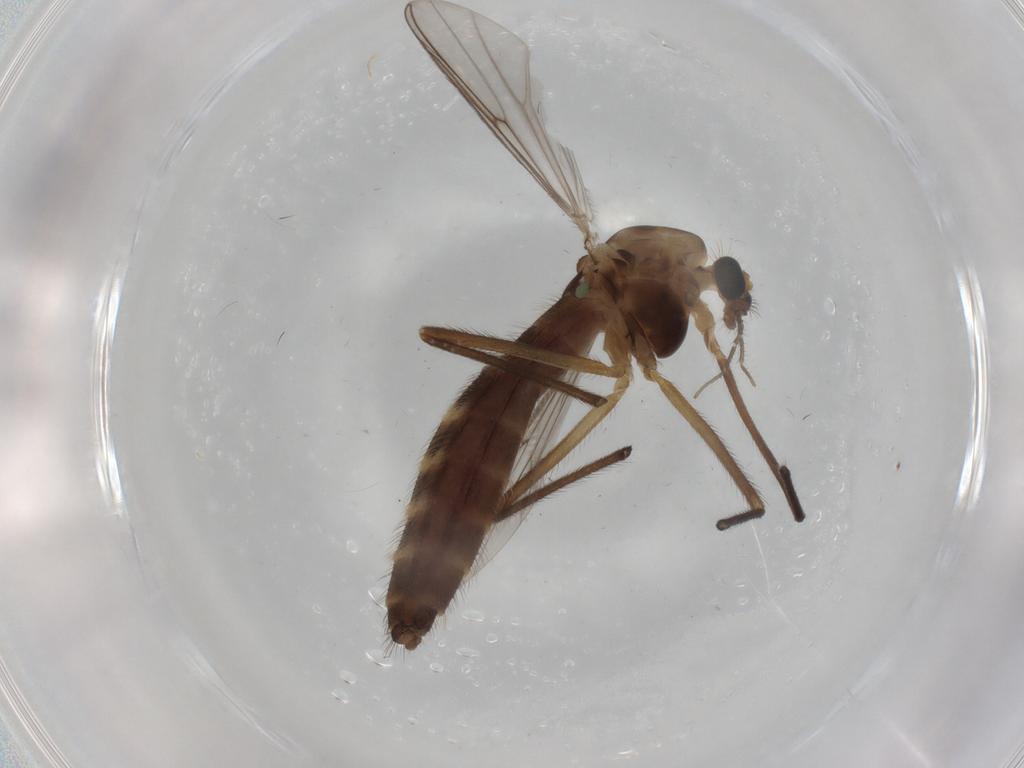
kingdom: Animalia
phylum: Arthropoda
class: Insecta
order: Diptera
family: Chironomidae
